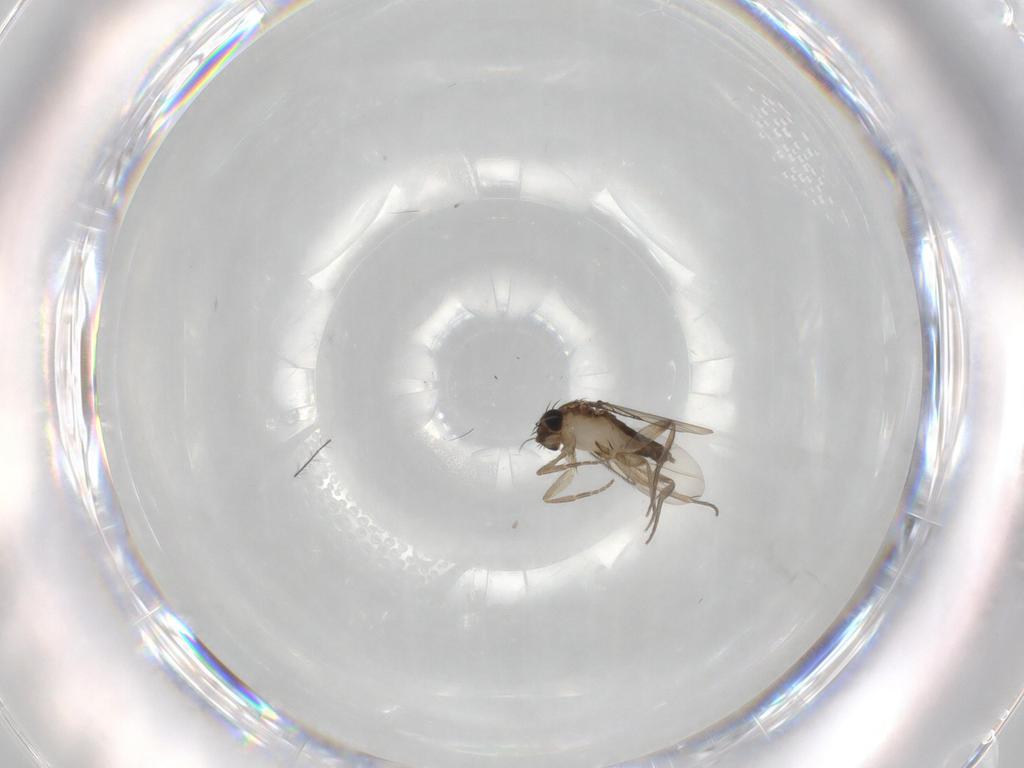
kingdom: Animalia
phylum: Arthropoda
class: Insecta
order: Diptera
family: Phoridae
